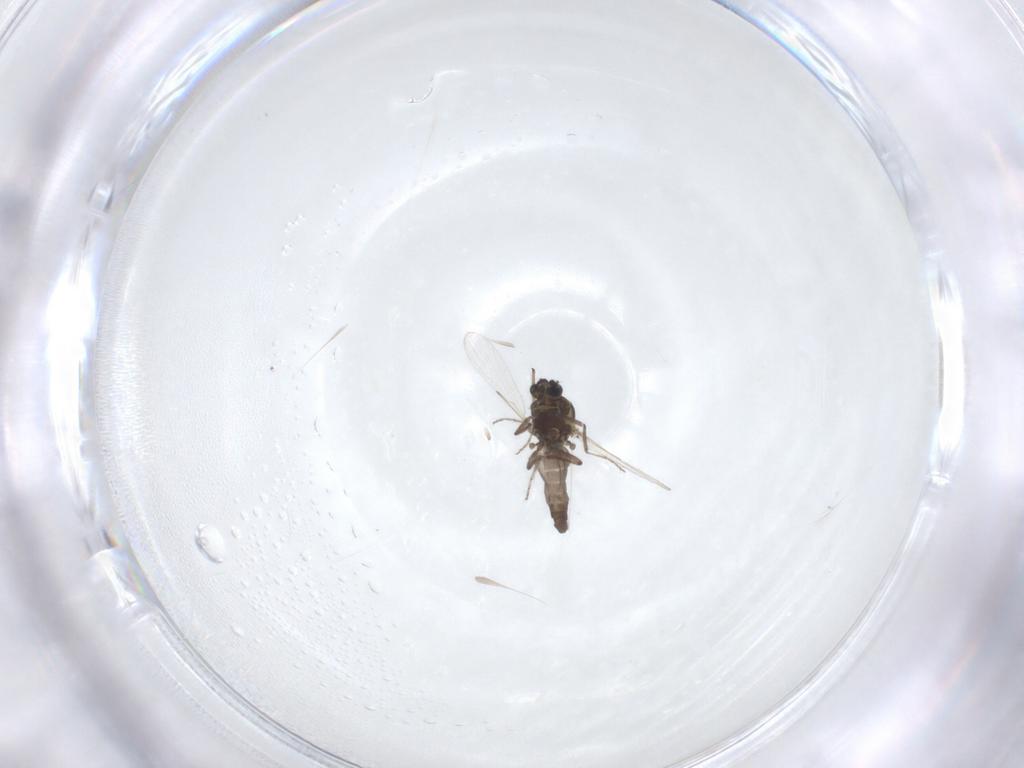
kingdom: Animalia
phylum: Arthropoda
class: Insecta
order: Diptera
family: Ceratopogonidae
